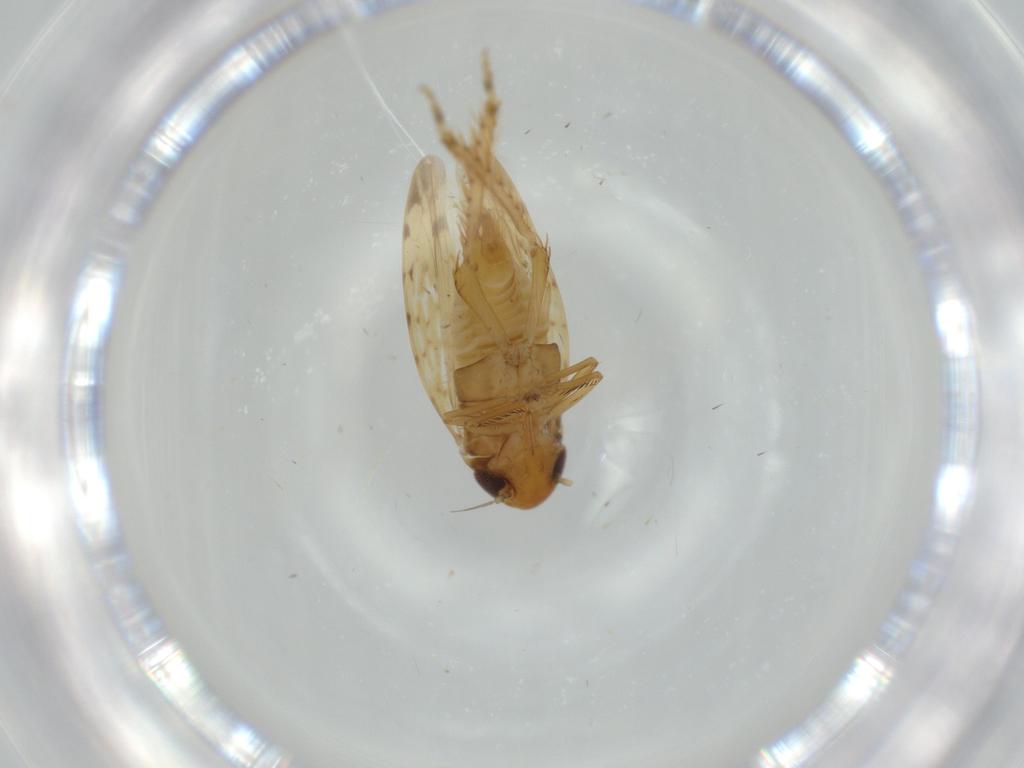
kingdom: Animalia
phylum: Arthropoda
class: Insecta
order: Hemiptera
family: Cicadellidae
